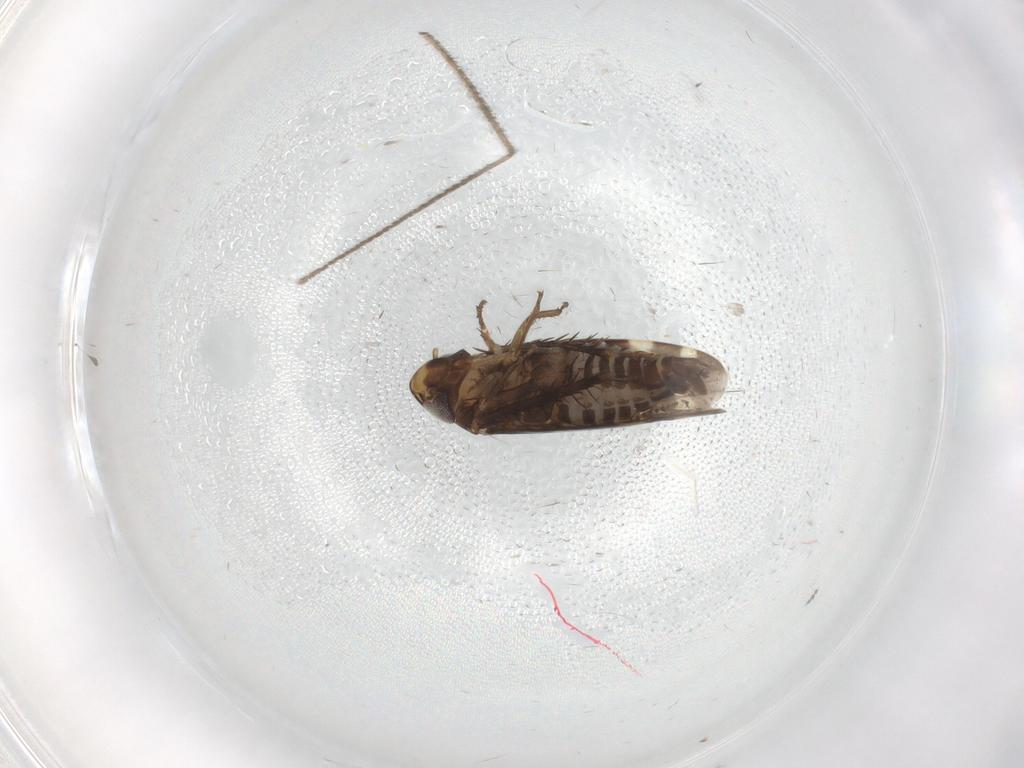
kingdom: Animalia
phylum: Arthropoda
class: Insecta
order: Hemiptera
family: Cicadellidae
